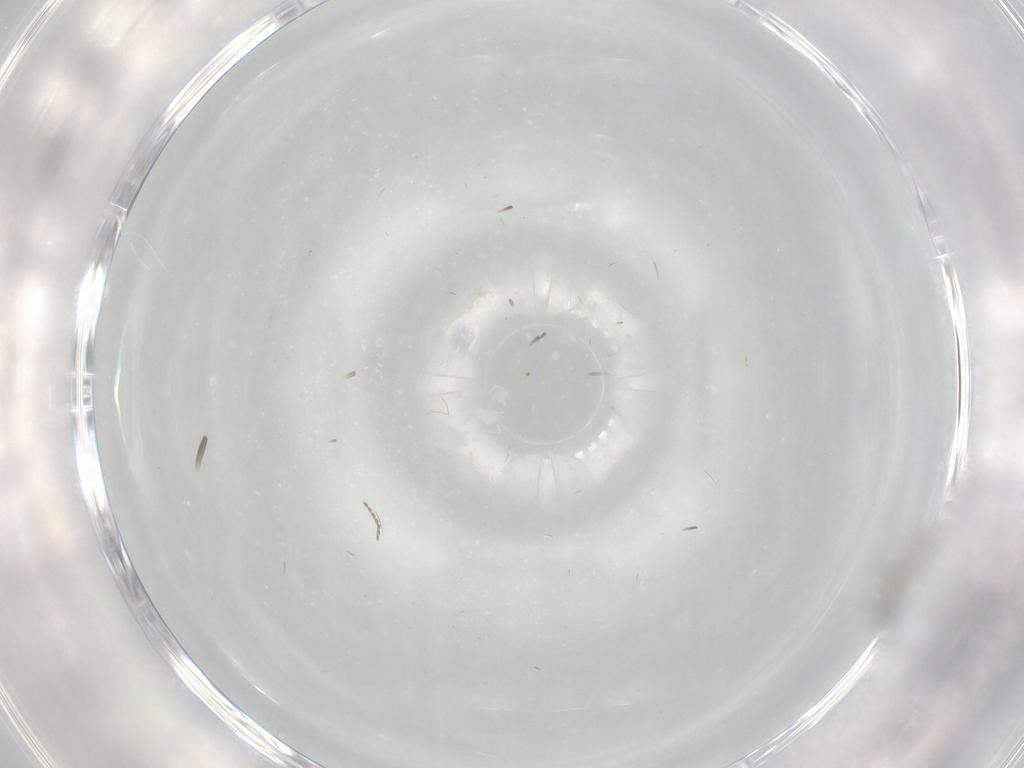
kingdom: Animalia
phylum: Arthropoda
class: Insecta
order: Diptera
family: Cecidomyiidae
